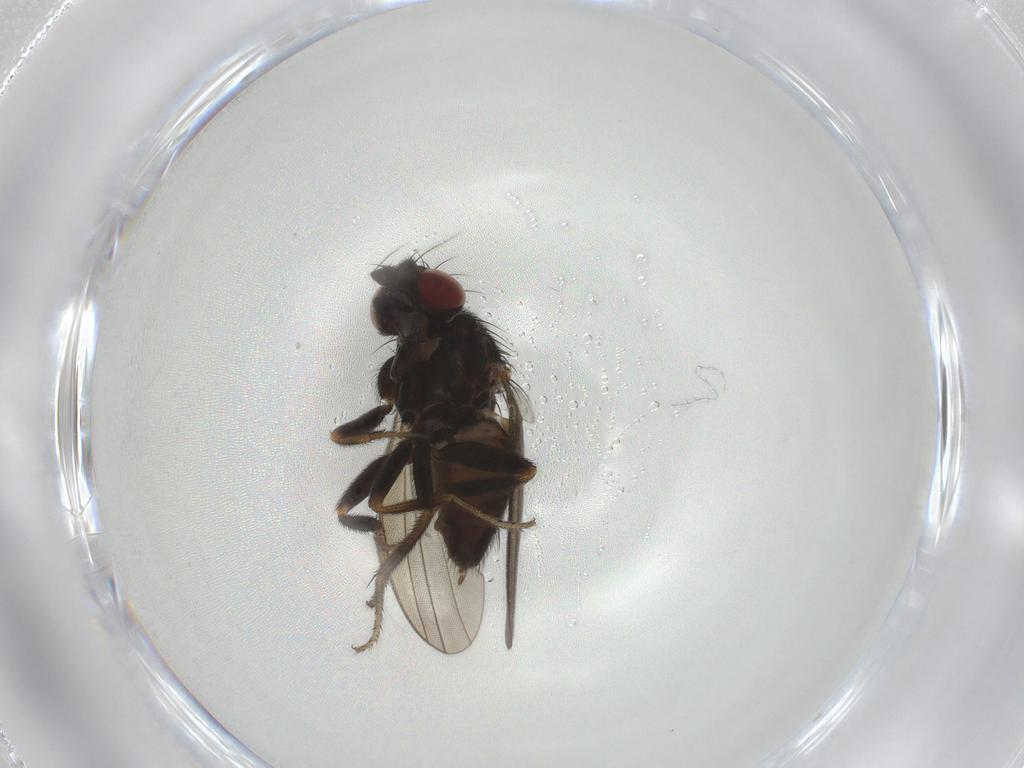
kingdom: Animalia
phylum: Arthropoda
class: Insecta
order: Diptera
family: Milichiidae
